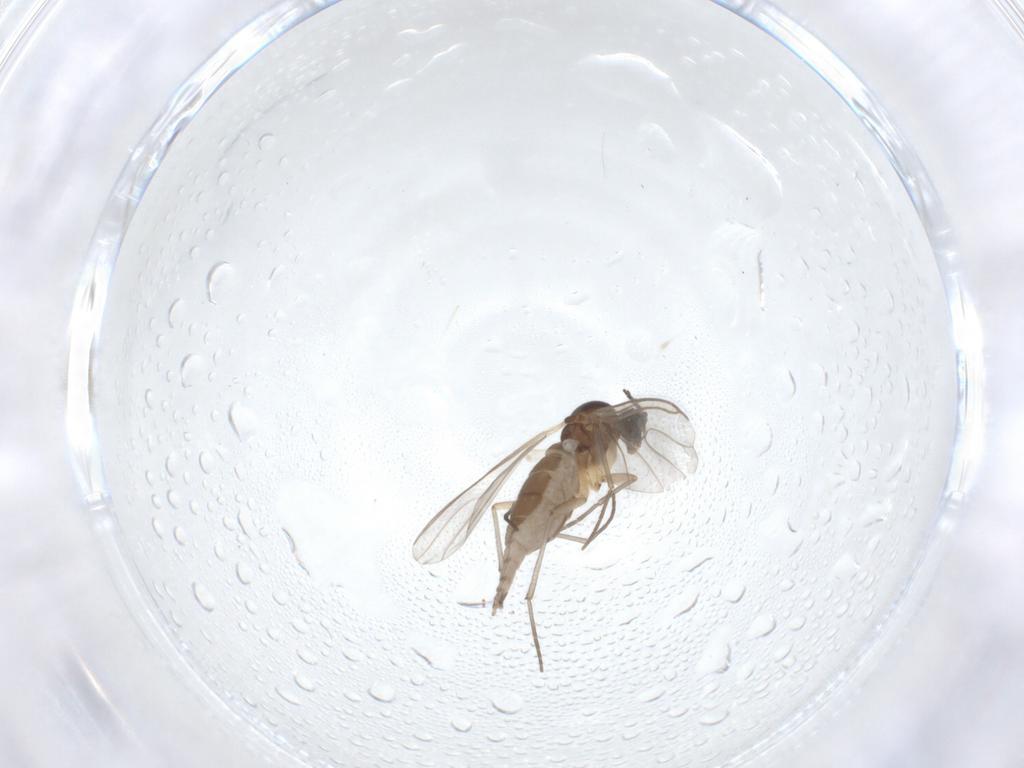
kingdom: Animalia
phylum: Arthropoda
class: Insecta
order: Diptera
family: Sciaridae
